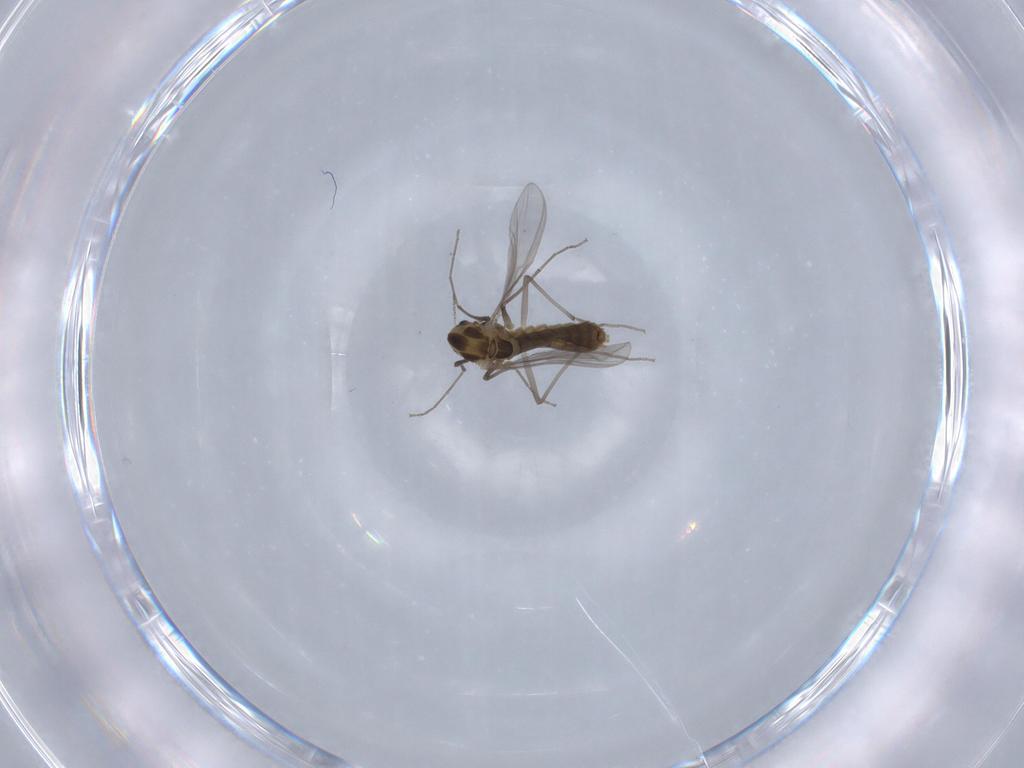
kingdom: Animalia
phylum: Arthropoda
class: Insecta
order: Diptera
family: Chironomidae
